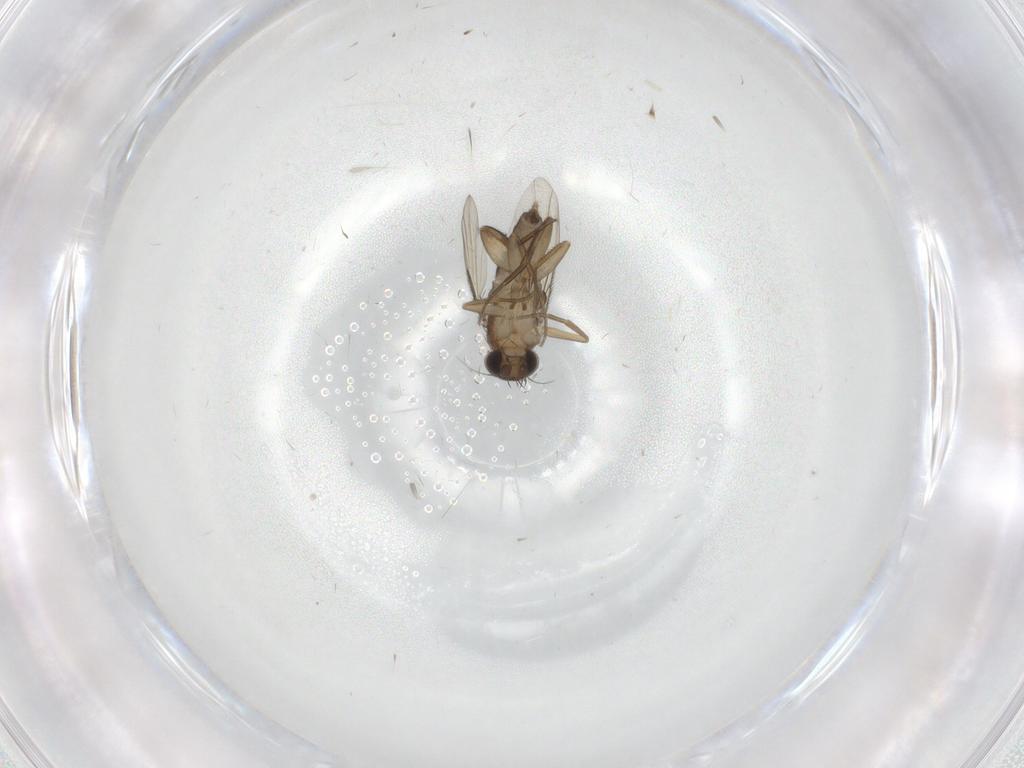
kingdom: Animalia
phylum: Arthropoda
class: Insecta
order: Diptera
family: Phoridae
